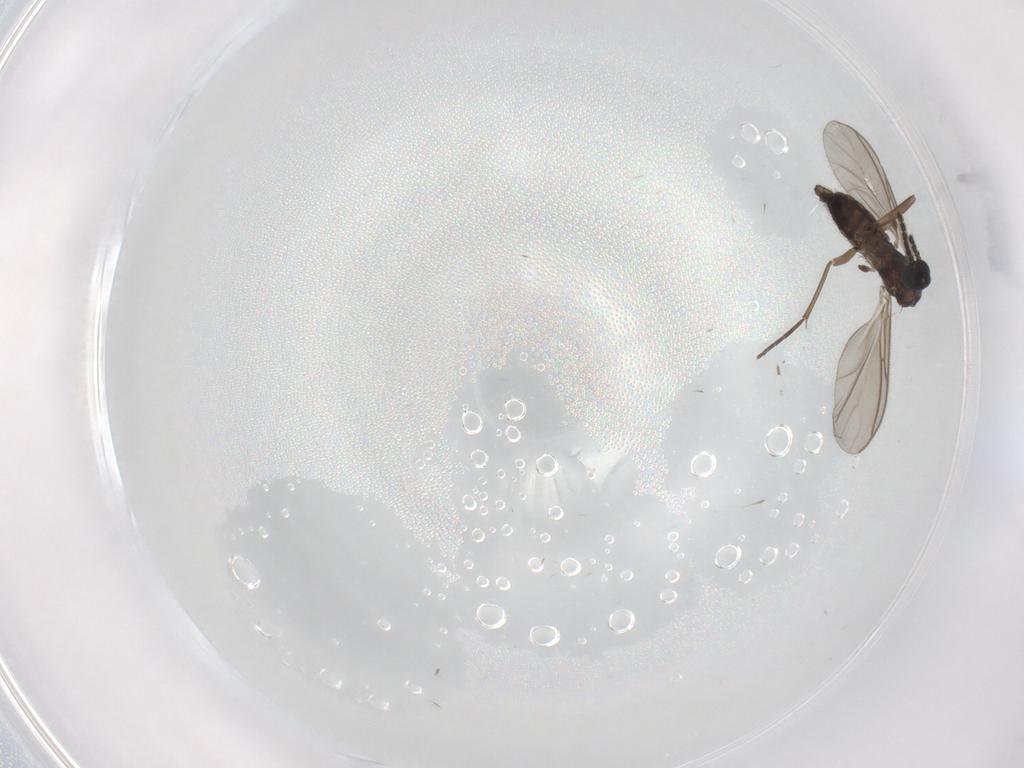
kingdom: Animalia
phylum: Arthropoda
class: Insecta
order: Diptera
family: Sciaridae
